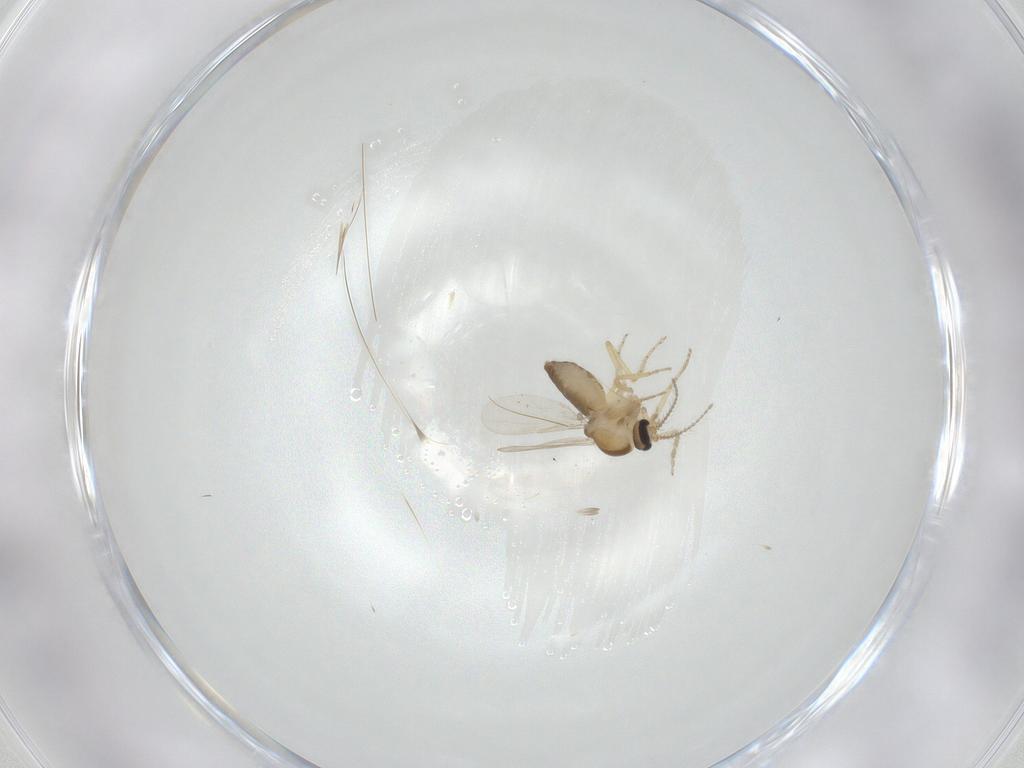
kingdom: Animalia
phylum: Arthropoda
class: Insecta
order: Diptera
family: Ceratopogonidae
